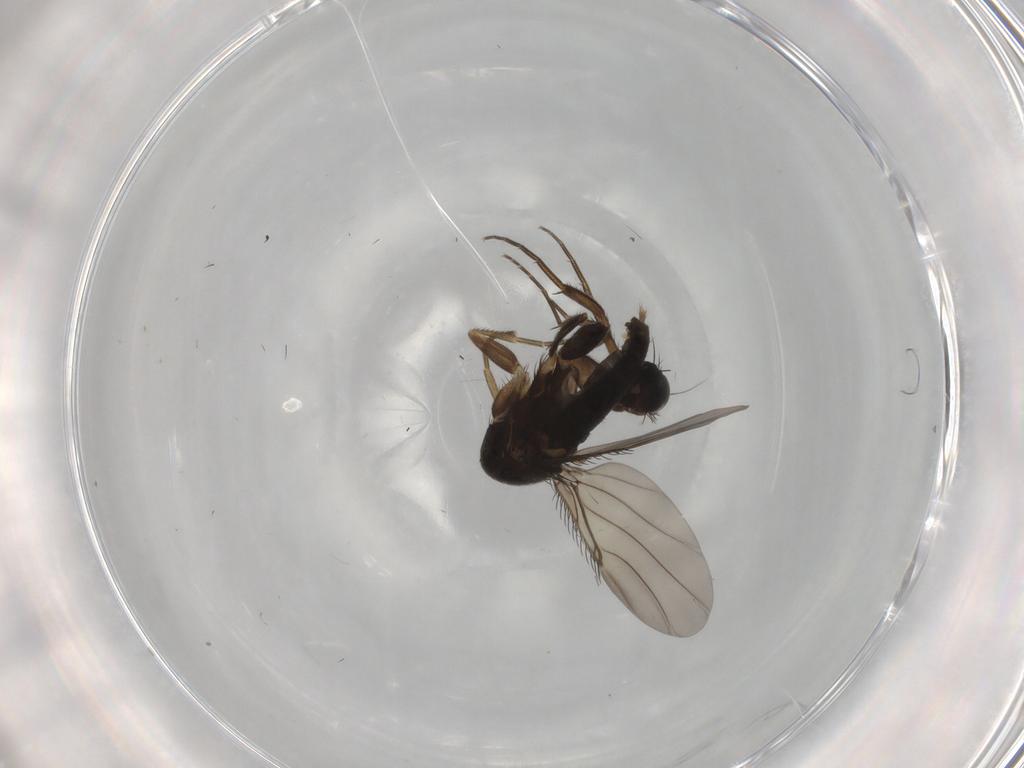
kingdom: Animalia
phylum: Arthropoda
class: Insecta
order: Diptera
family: Phoridae
